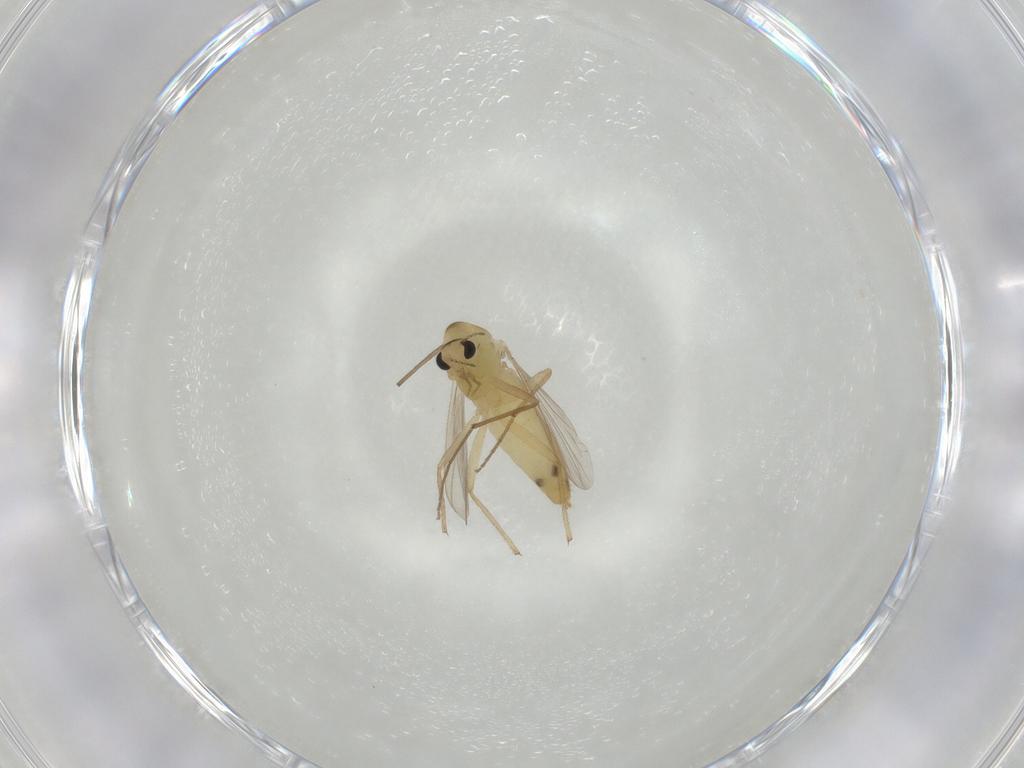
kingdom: Animalia
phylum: Arthropoda
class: Insecta
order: Diptera
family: Chironomidae
